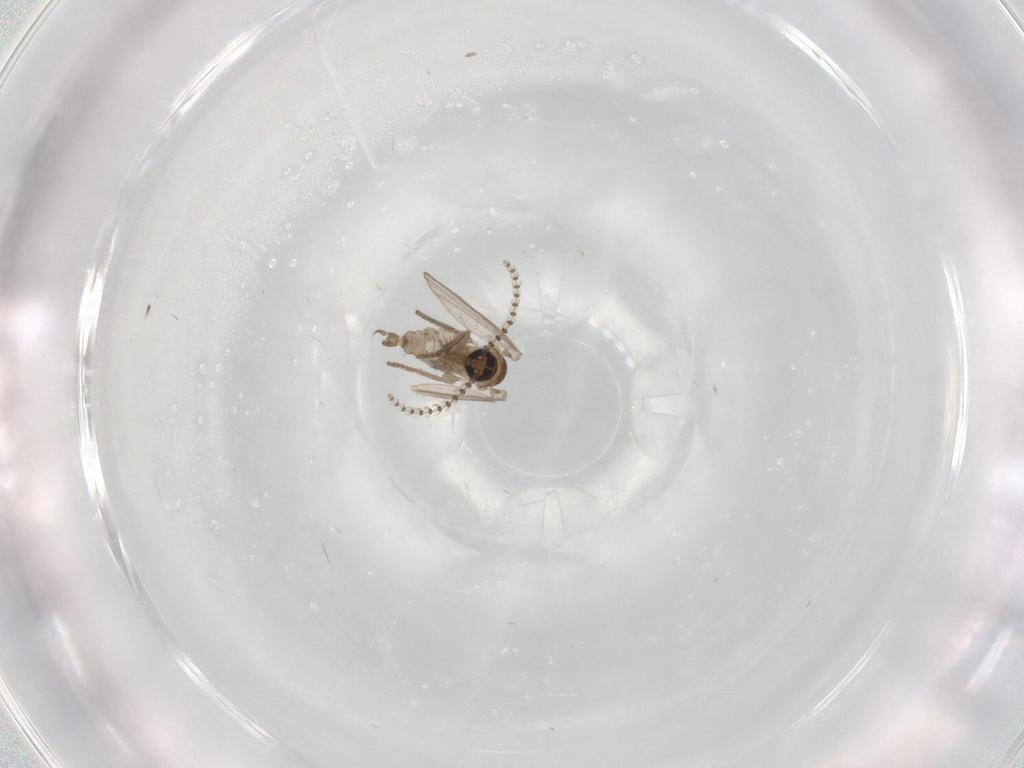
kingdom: Animalia
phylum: Arthropoda
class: Insecta
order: Diptera
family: Psychodidae
